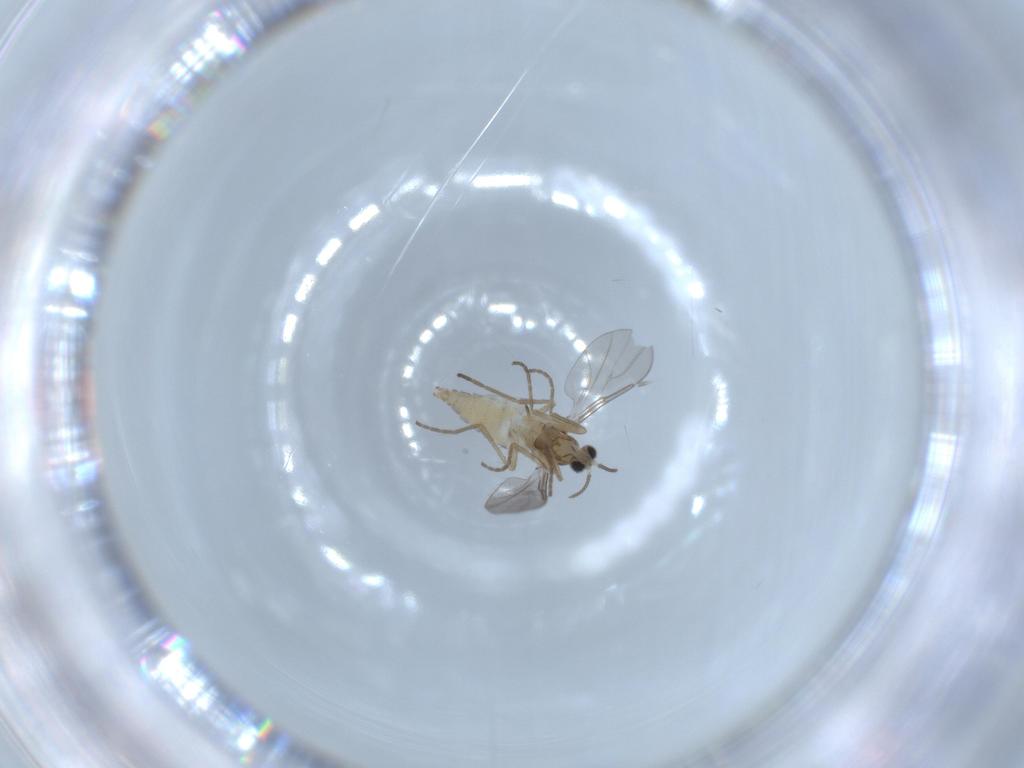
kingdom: Animalia
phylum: Arthropoda
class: Insecta
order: Diptera
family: Cecidomyiidae
